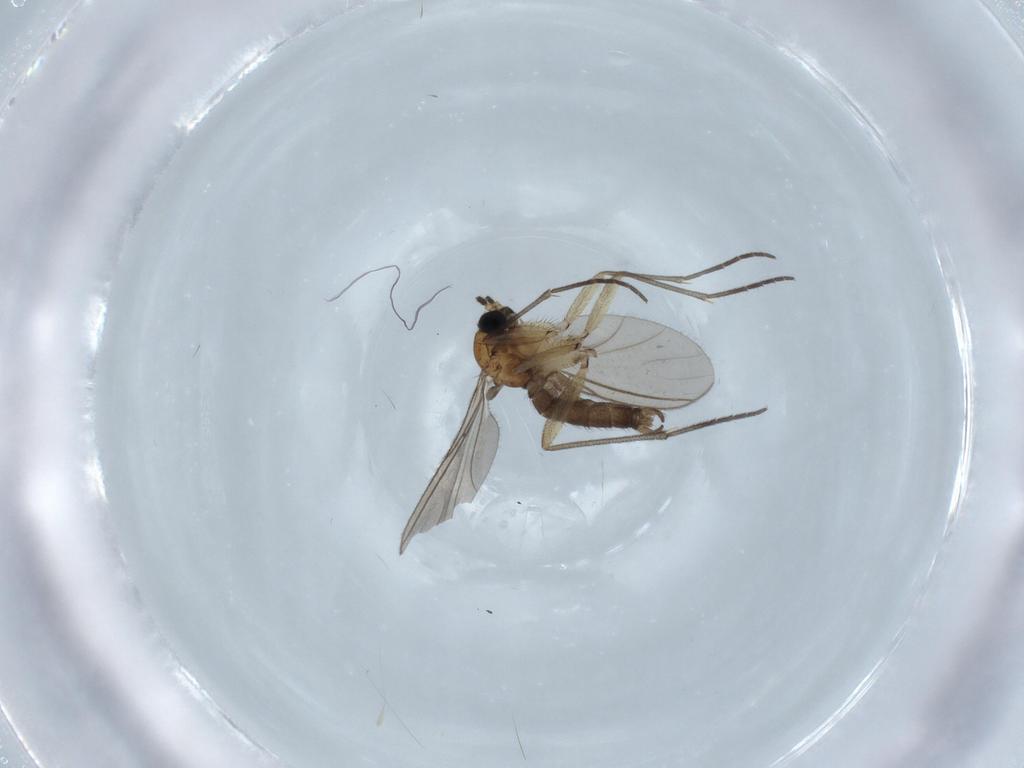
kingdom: Animalia
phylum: Arthropoda
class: Insecta
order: Diptera
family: Sciaridae
